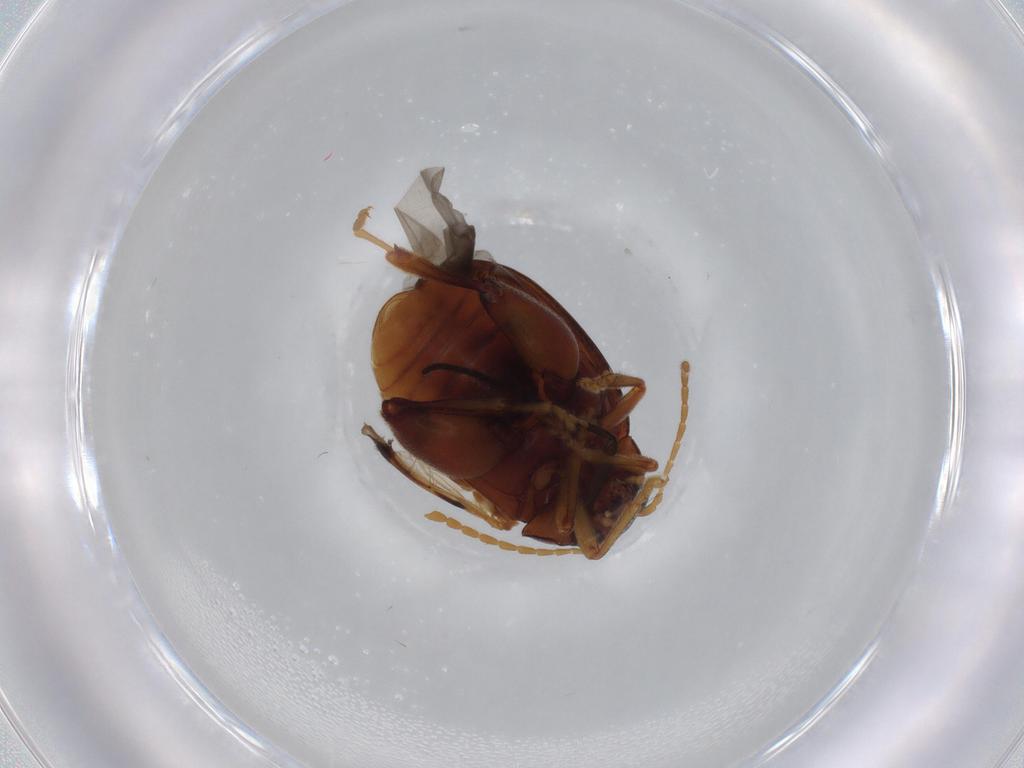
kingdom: Animalia
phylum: Arthropoda
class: Insecta
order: Coleoptera
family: Chrysomelidae
